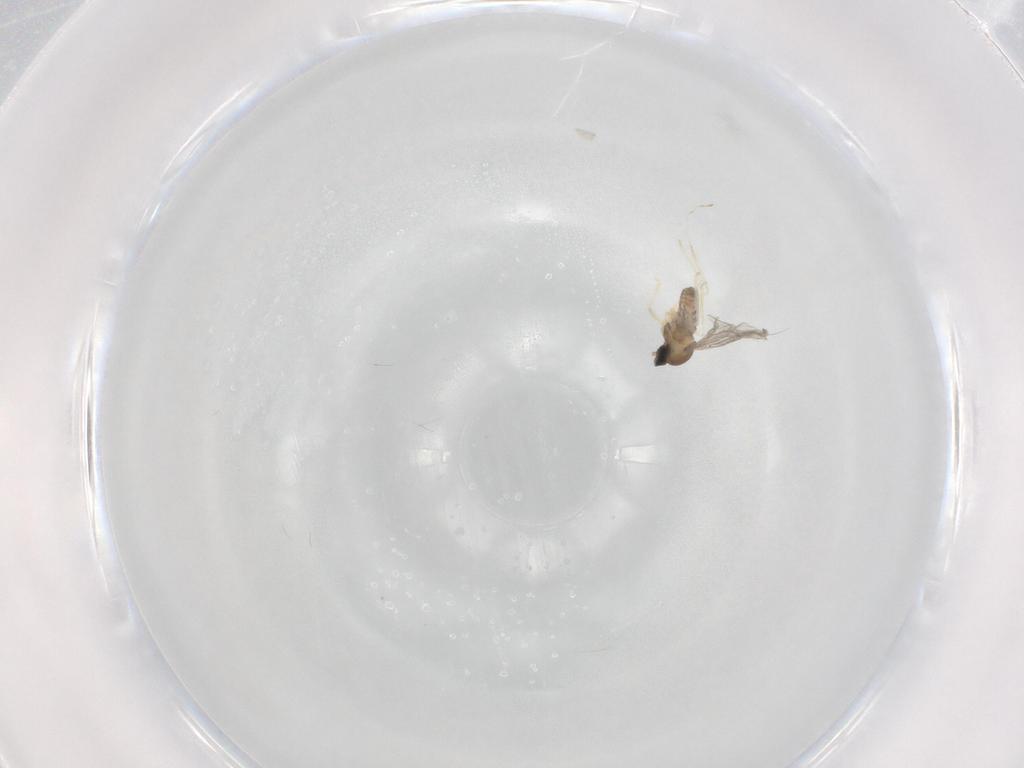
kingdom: Animalia
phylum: Arthropoda
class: Insecta
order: Diptera
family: Cecidomyiidae
